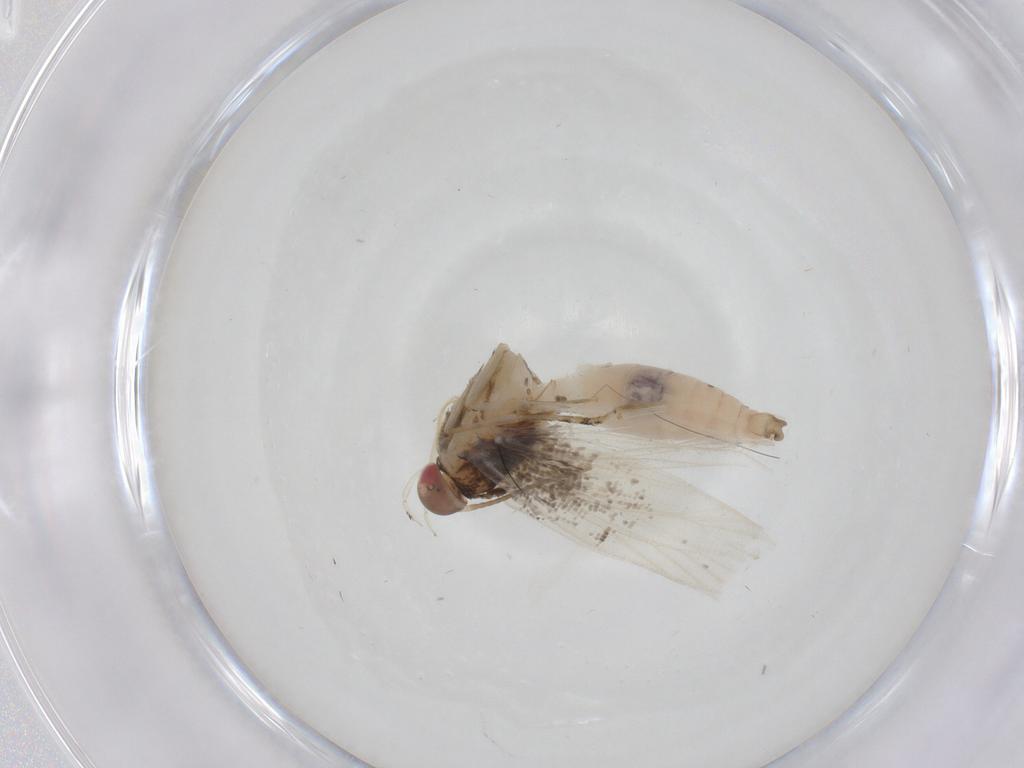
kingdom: Animalia
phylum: Arthropoda
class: Insecta
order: Lepidoptera
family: Gelechiidae
